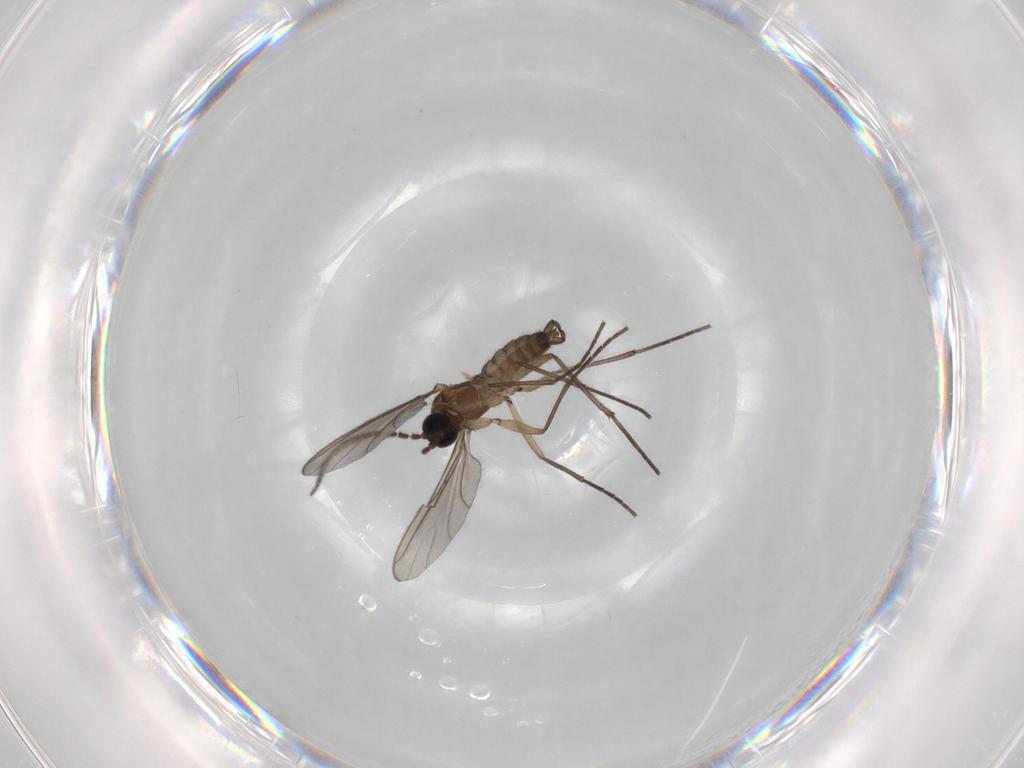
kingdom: Animalia
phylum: Arthropoda
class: Insecta
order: Diptera
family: Sciaridae
